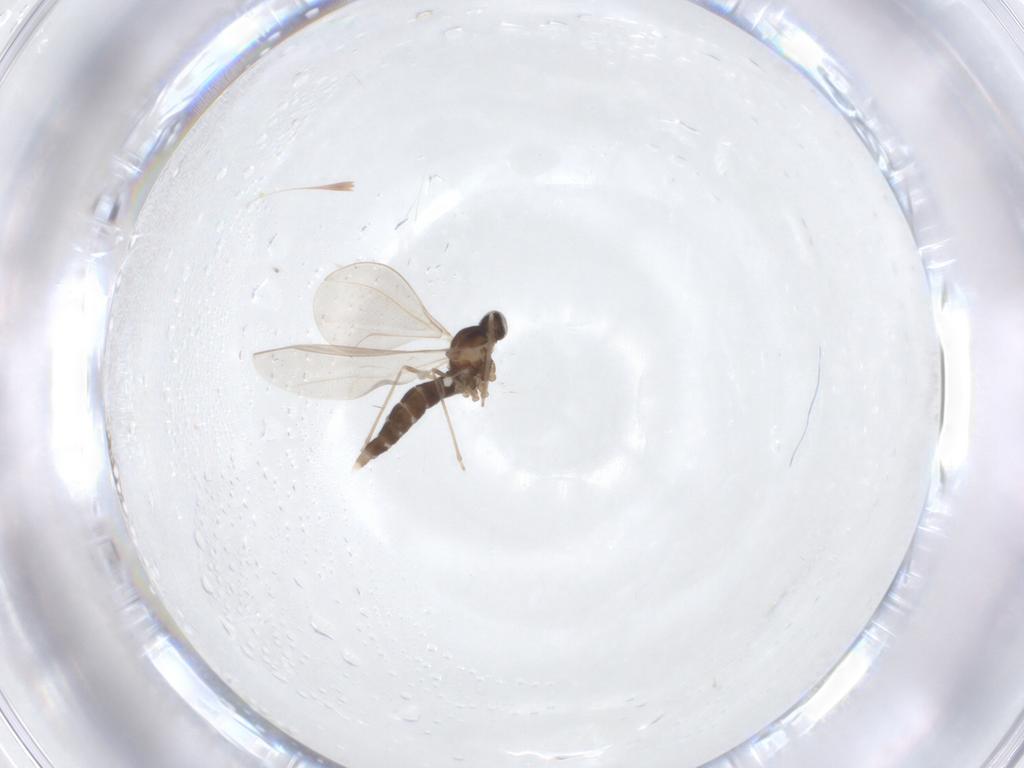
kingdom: Animalia
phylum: Arthropoda
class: Insecta
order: Diptera
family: Cecidomyiidae
